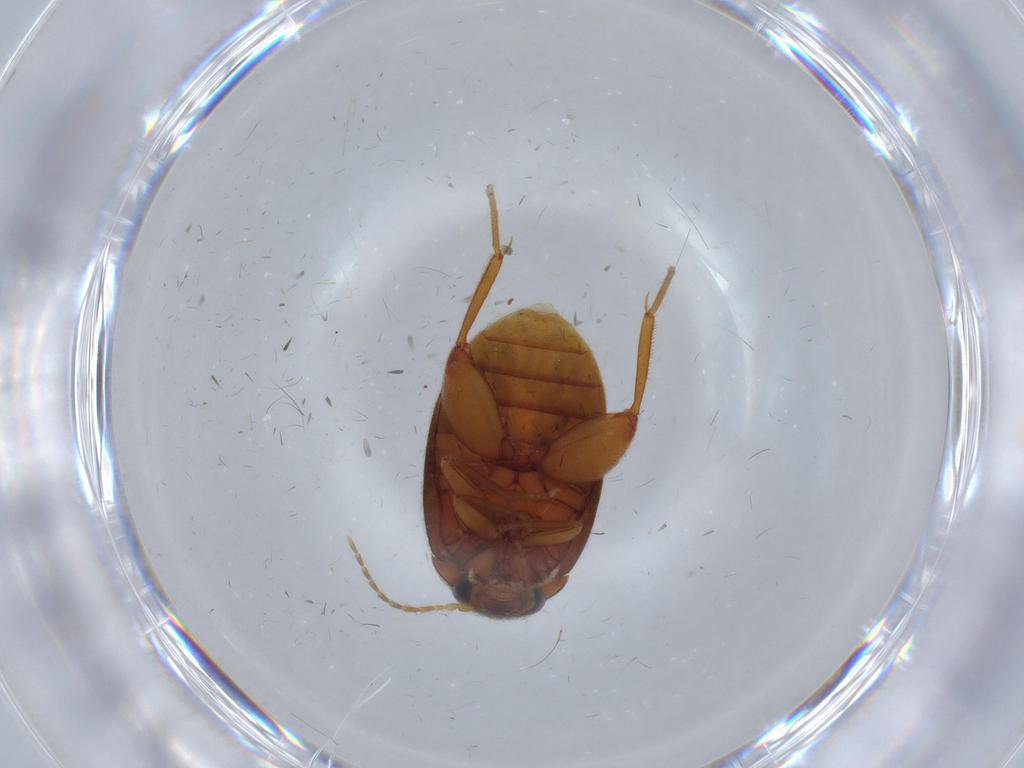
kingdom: Animalia
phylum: Arthropoda
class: Insecta
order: Coleoptera
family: Scirtidae
